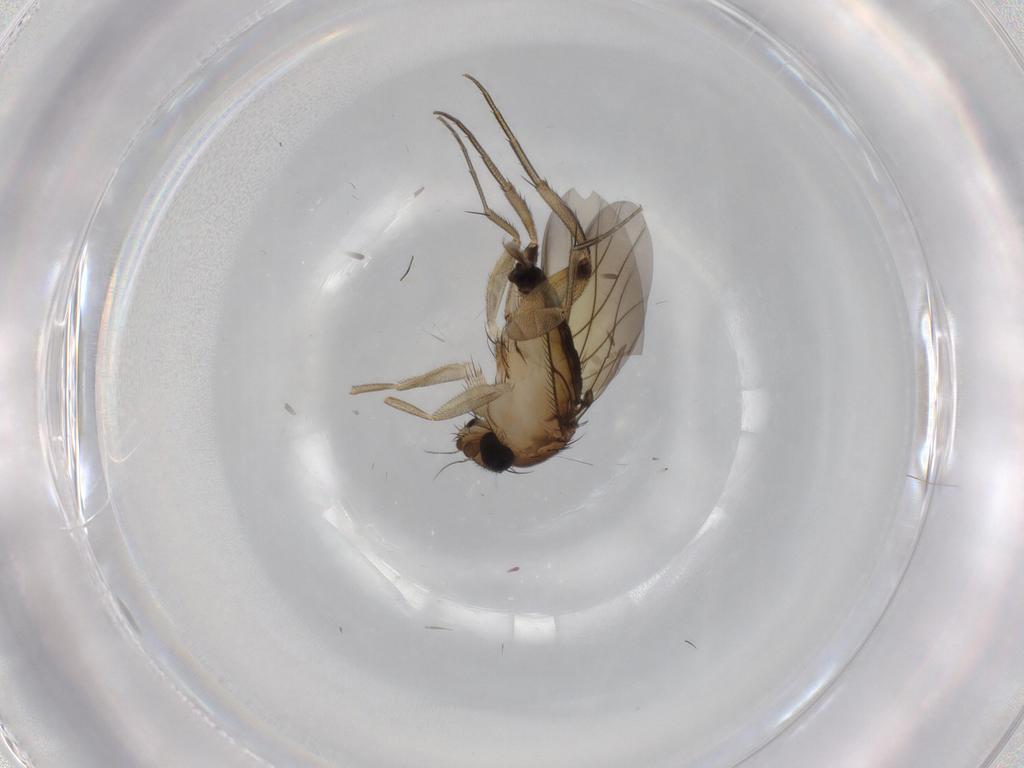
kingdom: Animalia
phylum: Arthropoda
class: Insecta
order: Diptera
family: Phoridae
